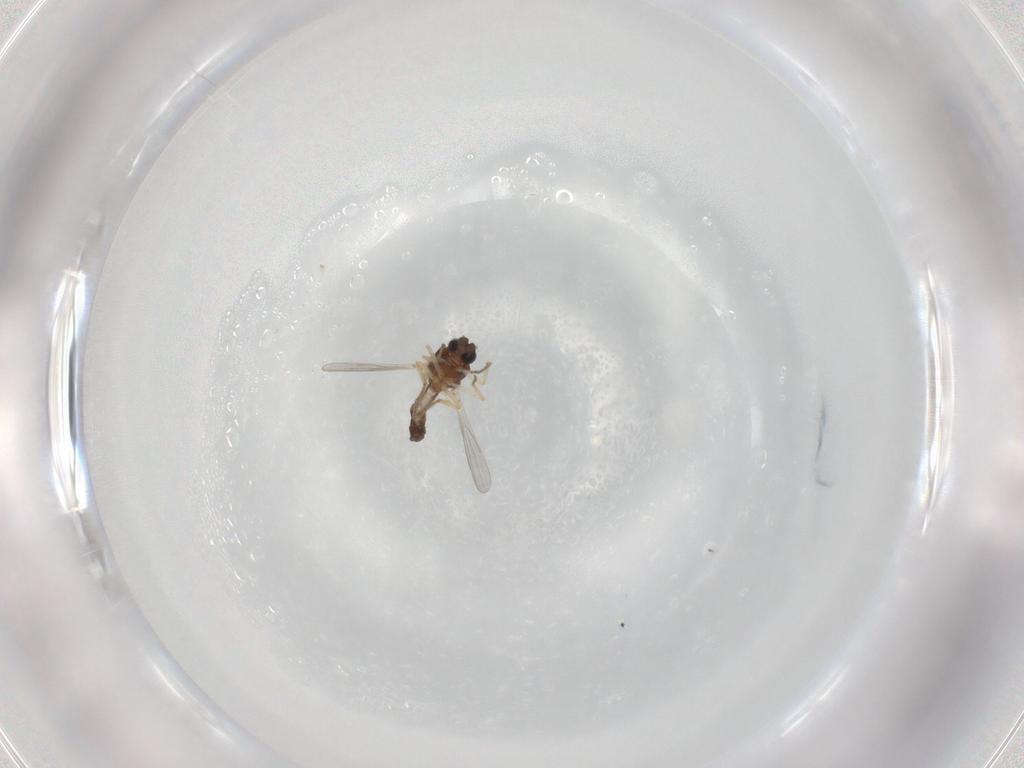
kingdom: Animalia
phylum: Arthropoda
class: Insecta
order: Diptera
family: Ceratopogonidae
